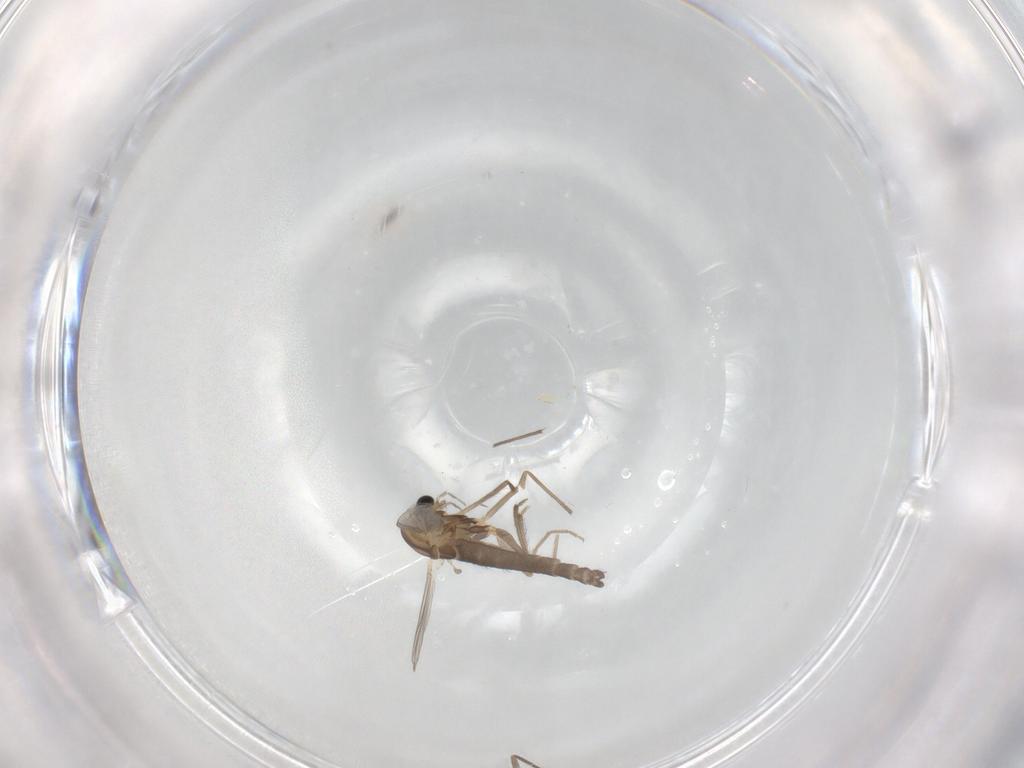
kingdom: Animalia
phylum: Arthropoda
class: Insecta
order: Diptera
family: Chironomidae
